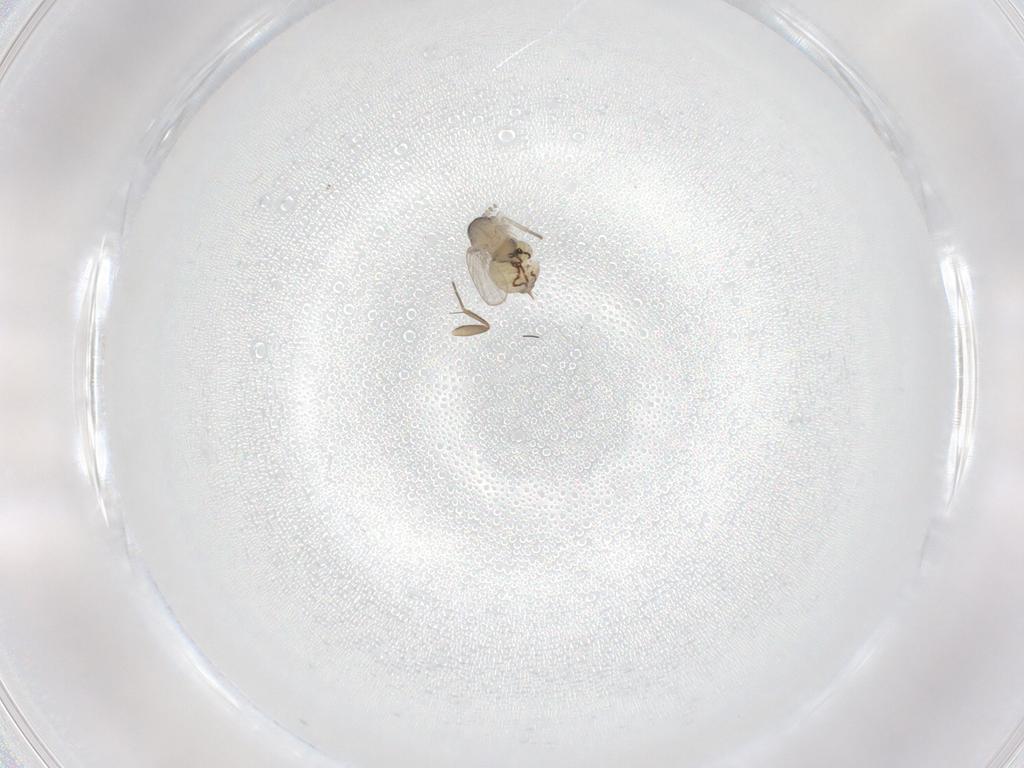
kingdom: Animalia
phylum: Arthropoda
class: Insecta
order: Diptera
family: Psychodidae
